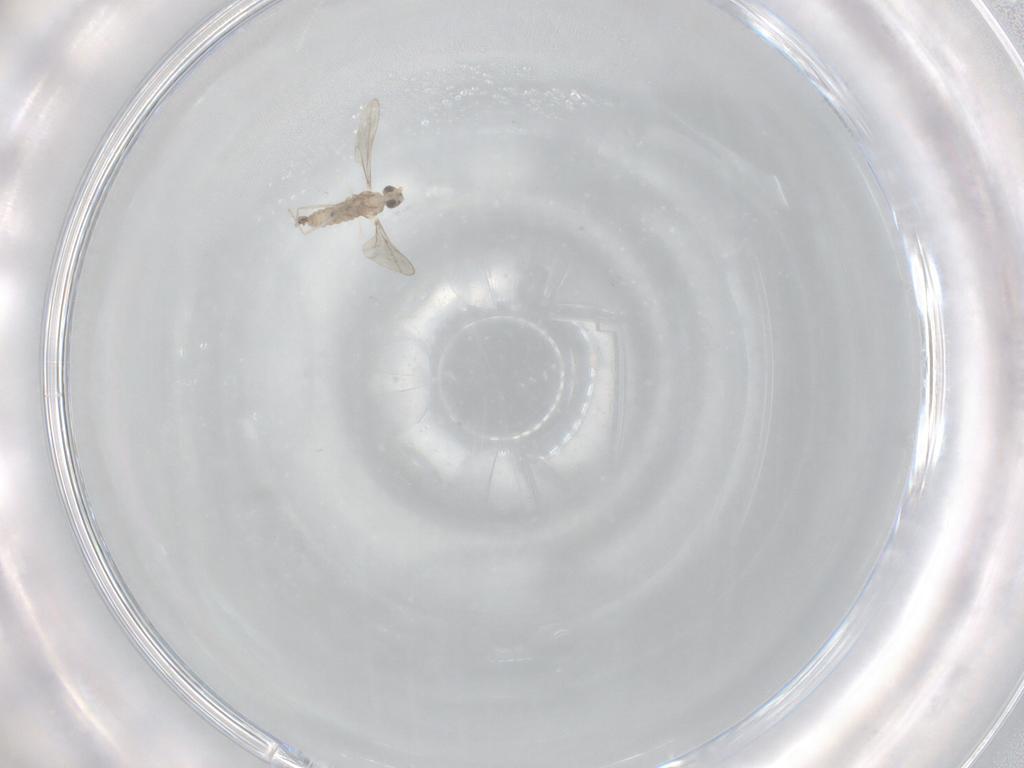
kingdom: Animalia
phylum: Arthropoda
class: Insecta
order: Diptera
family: Cecidomyiidae
